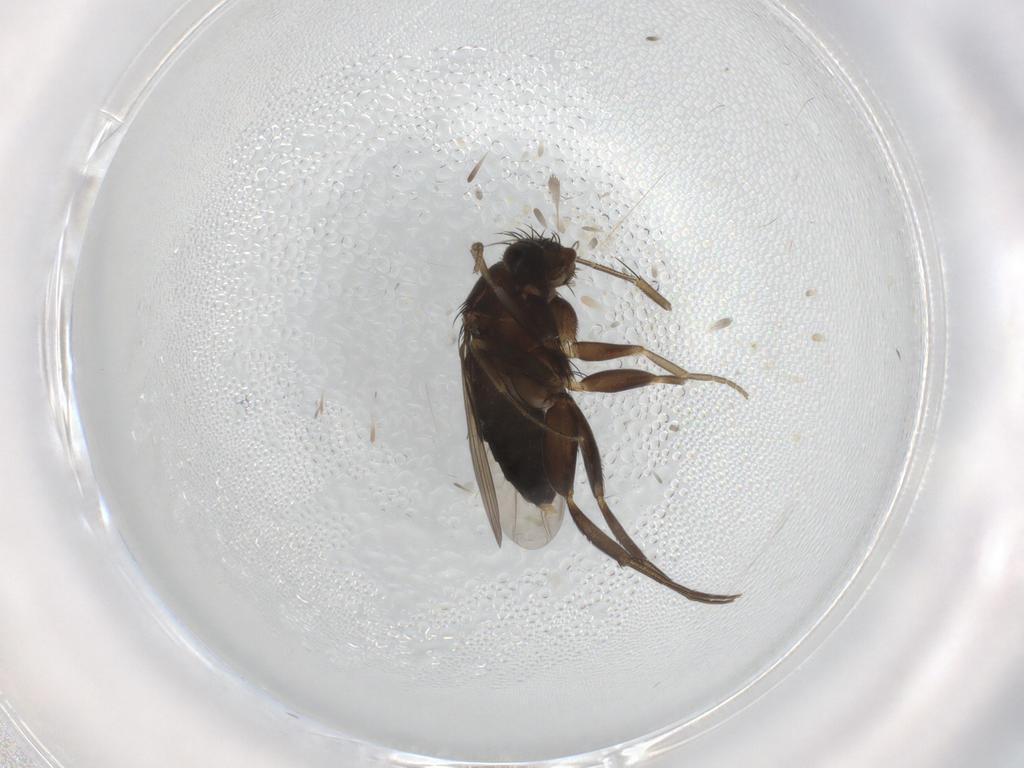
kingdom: Animalia
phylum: Arthropoda
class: Insecta
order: Diptera
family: Psychodidae
